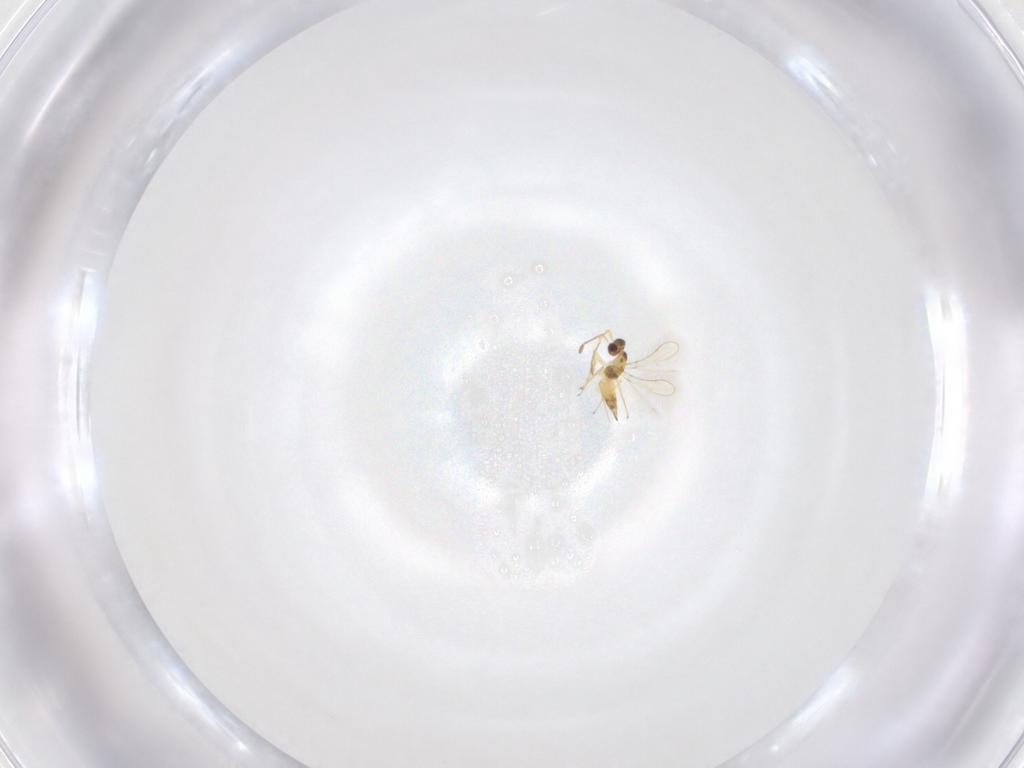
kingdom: Animalia
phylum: Arthropoda
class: Insecta
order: Hymenoptera
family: Mymaridae
